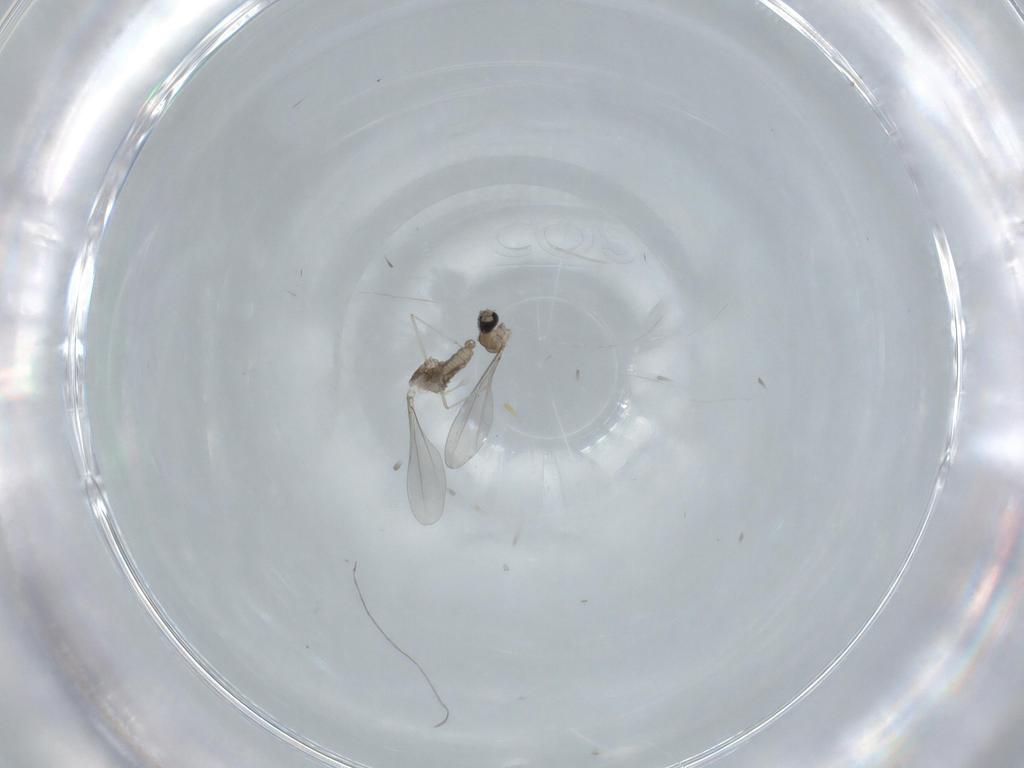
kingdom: Animalia
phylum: Arthropoda
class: Insecta
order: Diptera
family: Cecidomyiidae
